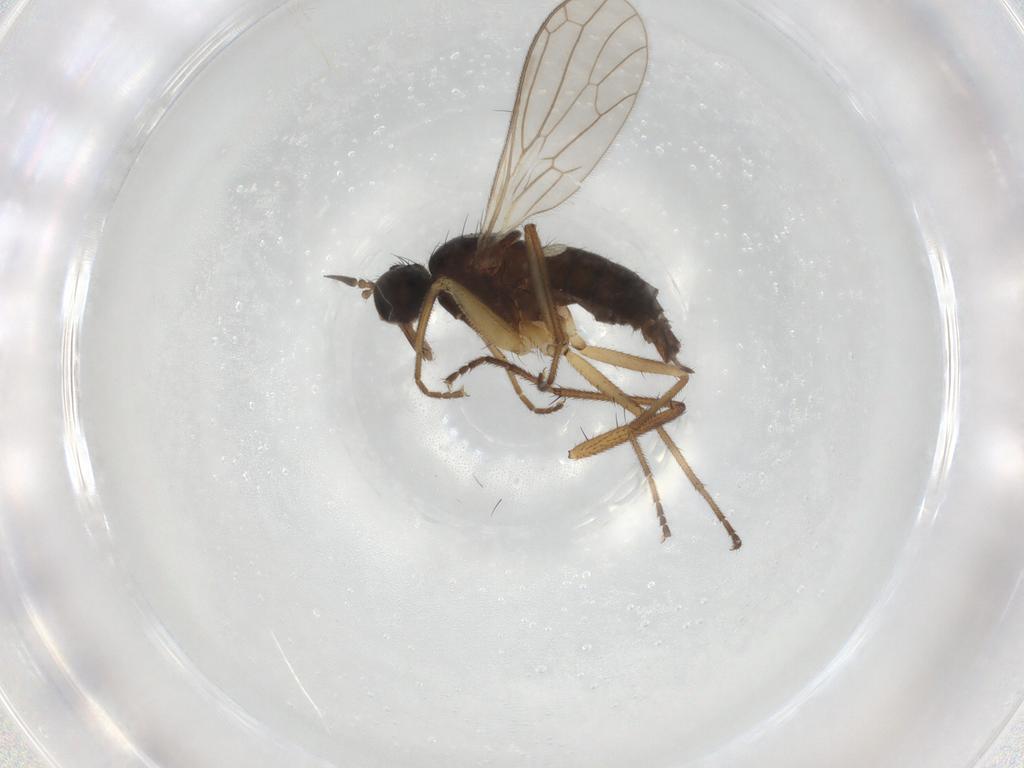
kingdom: Animalia
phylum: Arthropoda
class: Insecta
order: Diptera
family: Empididae
